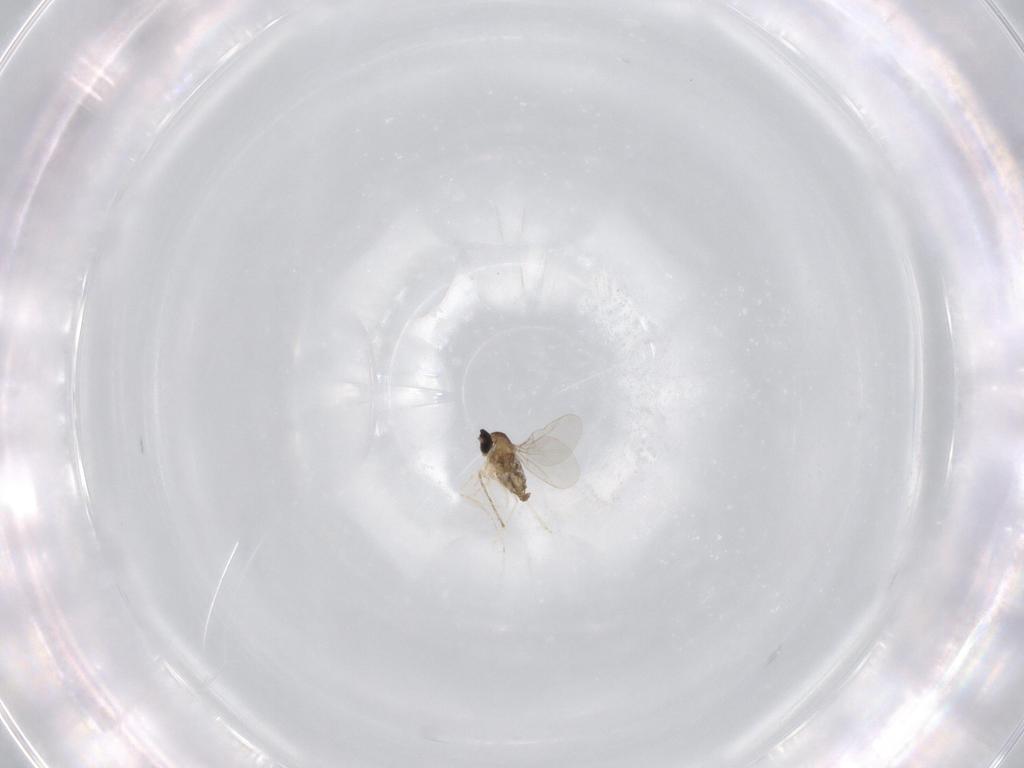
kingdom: Animalia
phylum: Arthropoda
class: Insecta
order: Diptera
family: Cecidomyiidae
